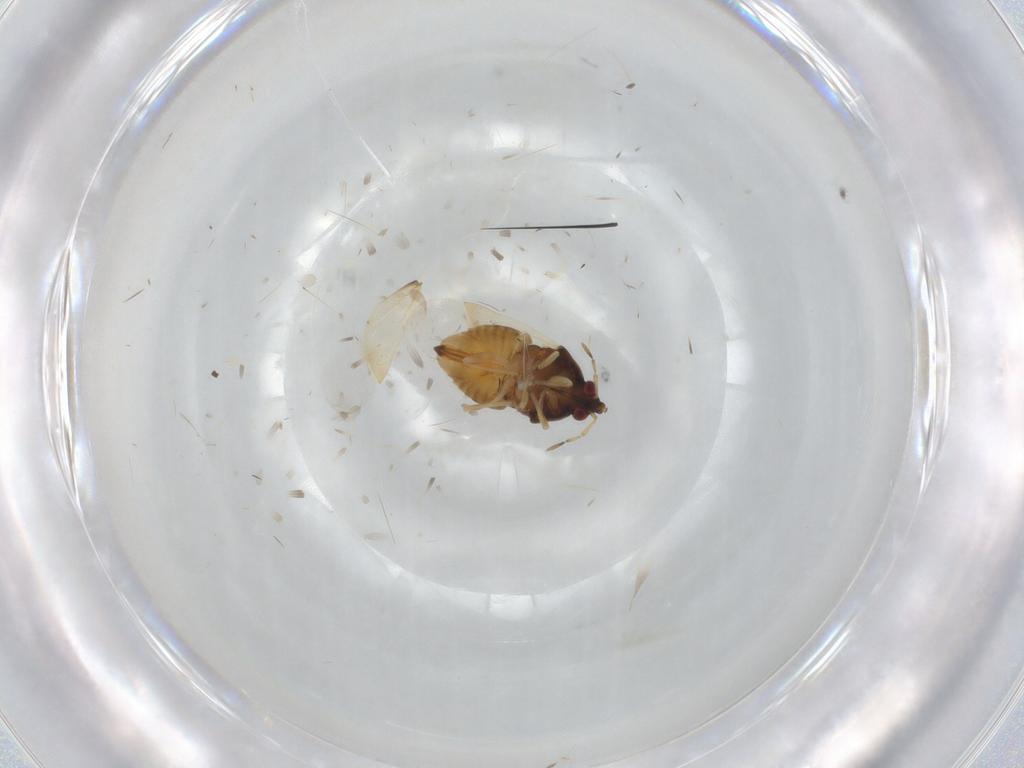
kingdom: Animalia
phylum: Arthropoda
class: Insecta
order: Hemiptera
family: Anthocoridae
